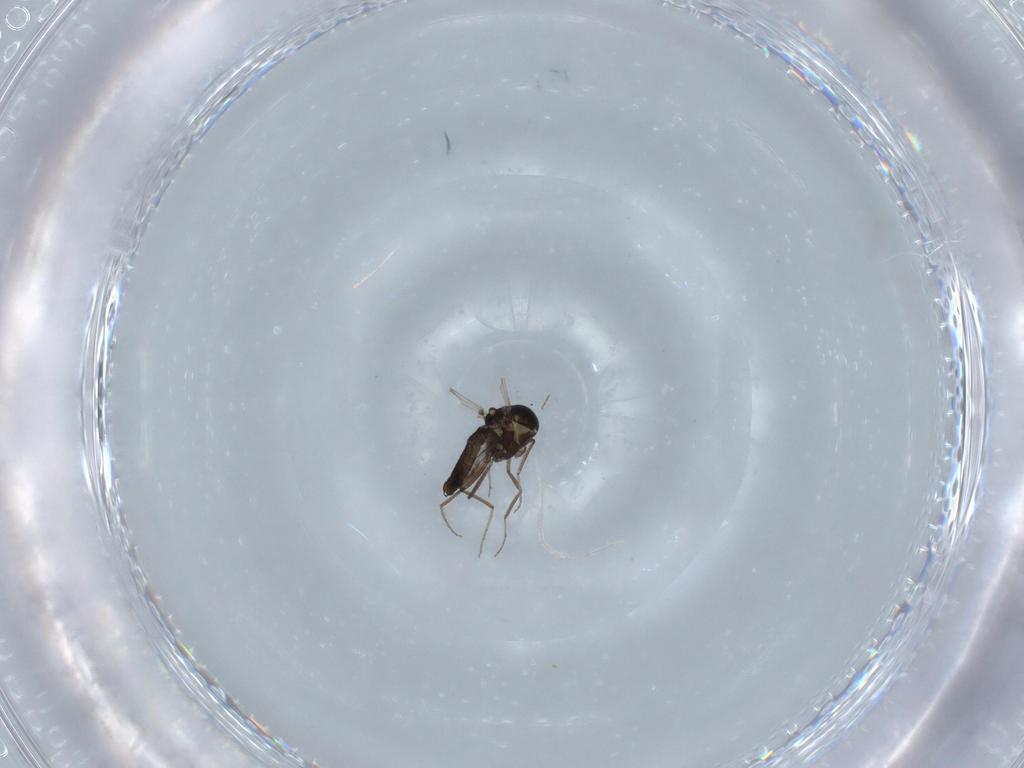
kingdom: Animalia
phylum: Arthropoda
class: Insecta
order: Diptera
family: Ceratopogonidae
